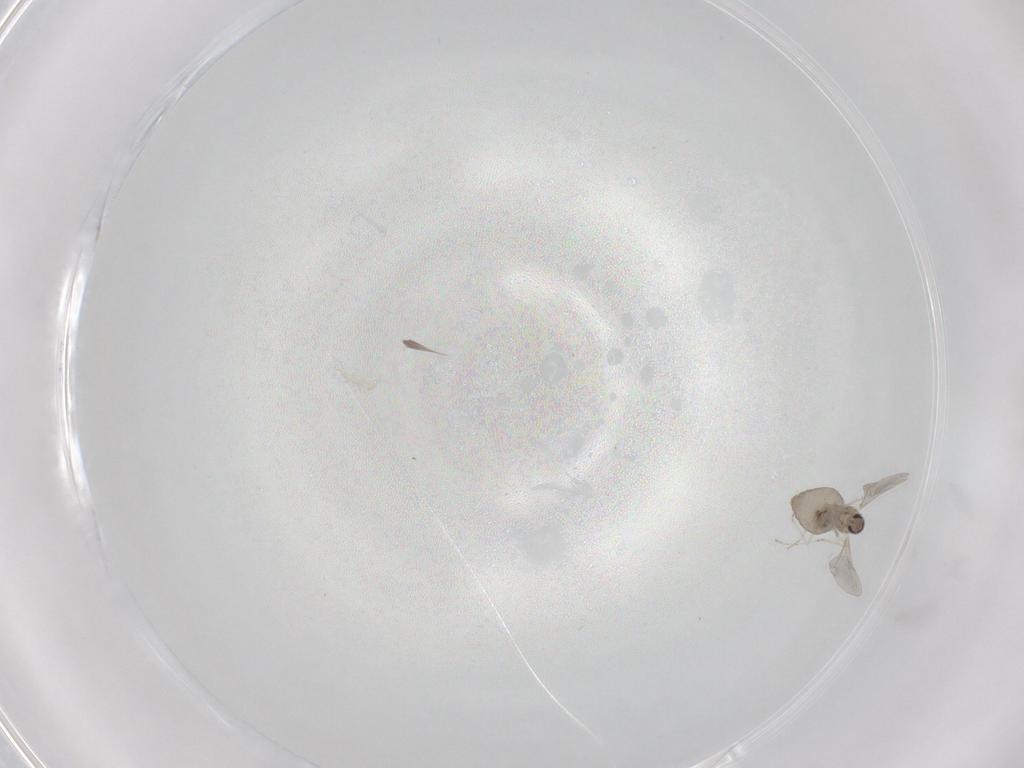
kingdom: Animalia
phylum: Arthropoda
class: Insecta
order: Diptera
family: Cecidomyiidae
